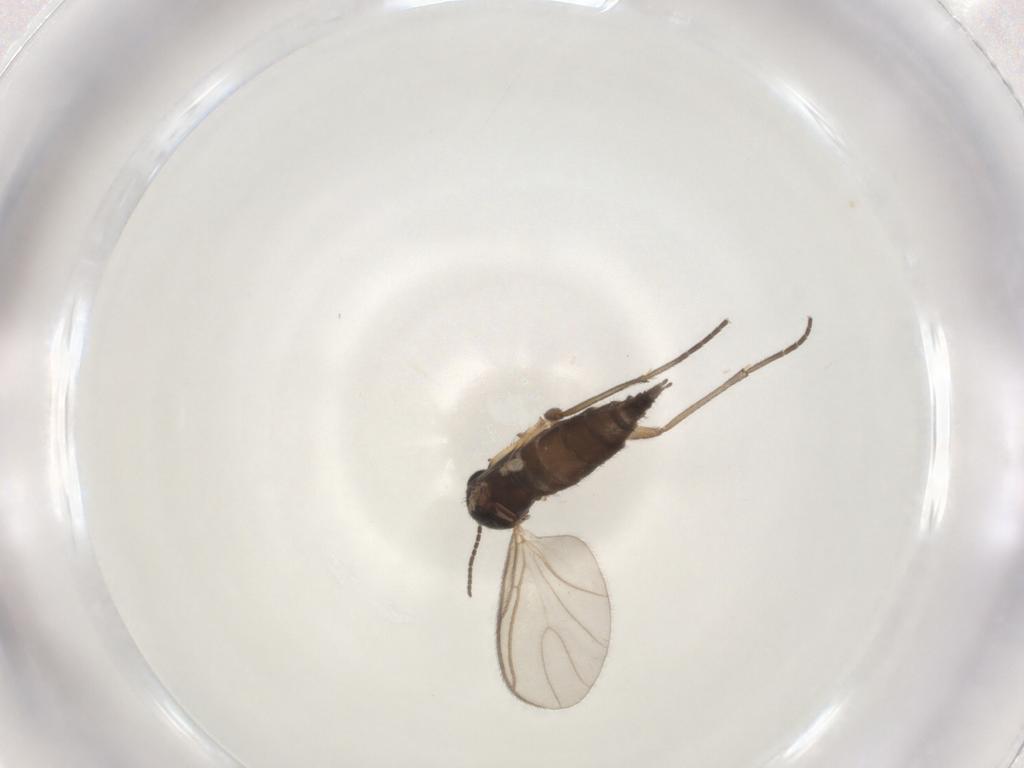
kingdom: Animalia
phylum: Arthropoda
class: Insecta
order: Diptera
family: Sciaridae
